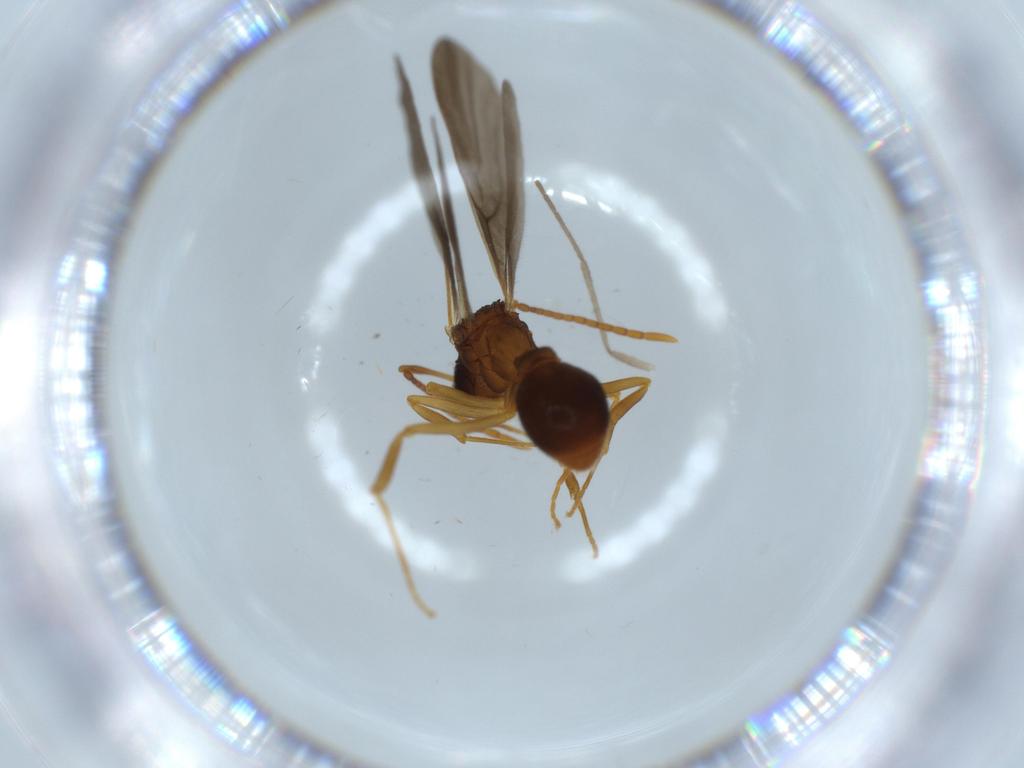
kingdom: Animalia
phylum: Arthropoda
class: Insecta
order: Hymenoptera
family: Formicidae
